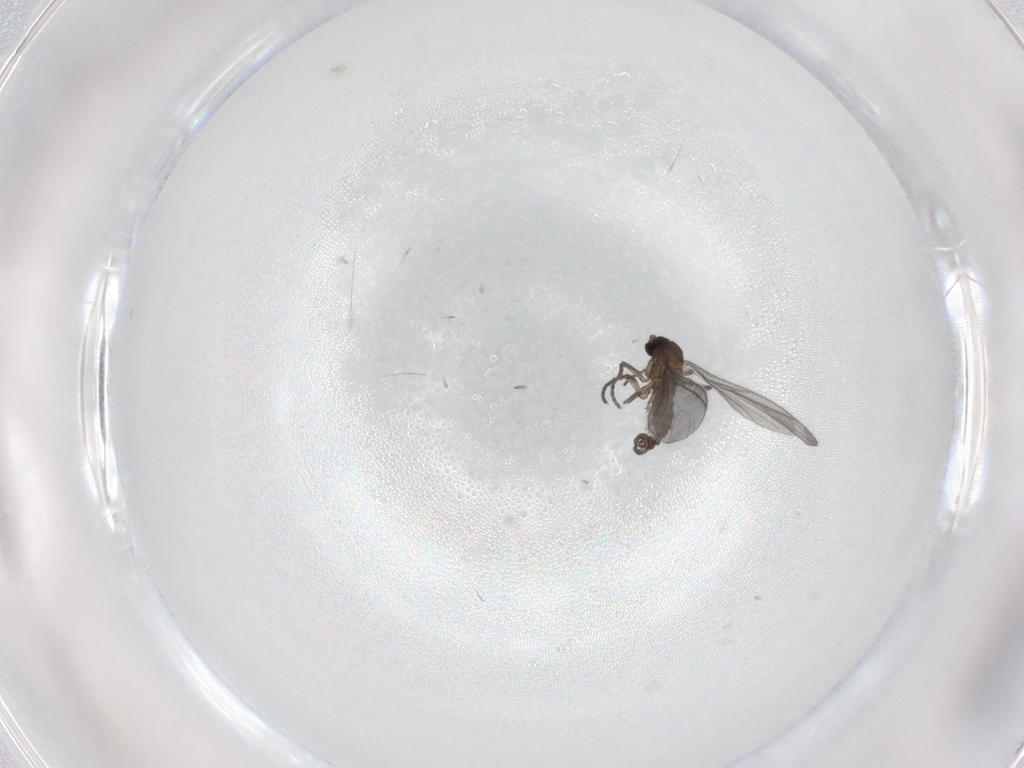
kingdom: Animalia
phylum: Arthropoda
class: Insecta
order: Diptera
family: Sciaridae
